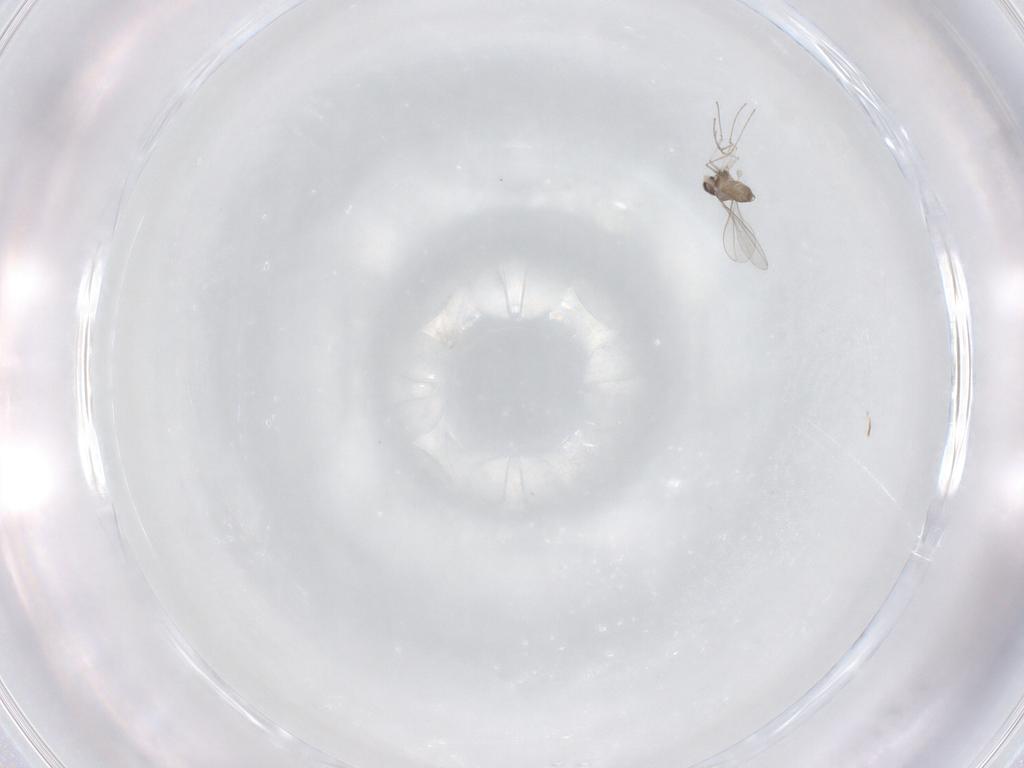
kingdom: Animalia
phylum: Arthropoda
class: Insecta
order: Diptera
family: Cecidomyiidae
